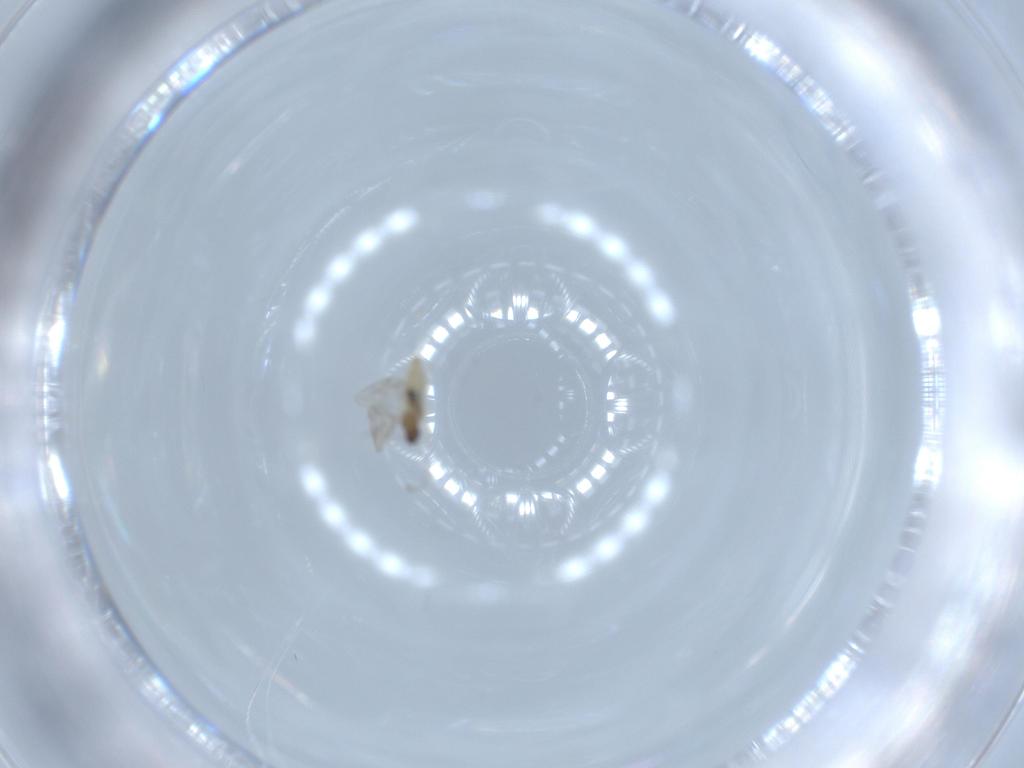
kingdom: Animalia
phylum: Arthropoda
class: Insecta
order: Diptera
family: Cecidomyiidae
